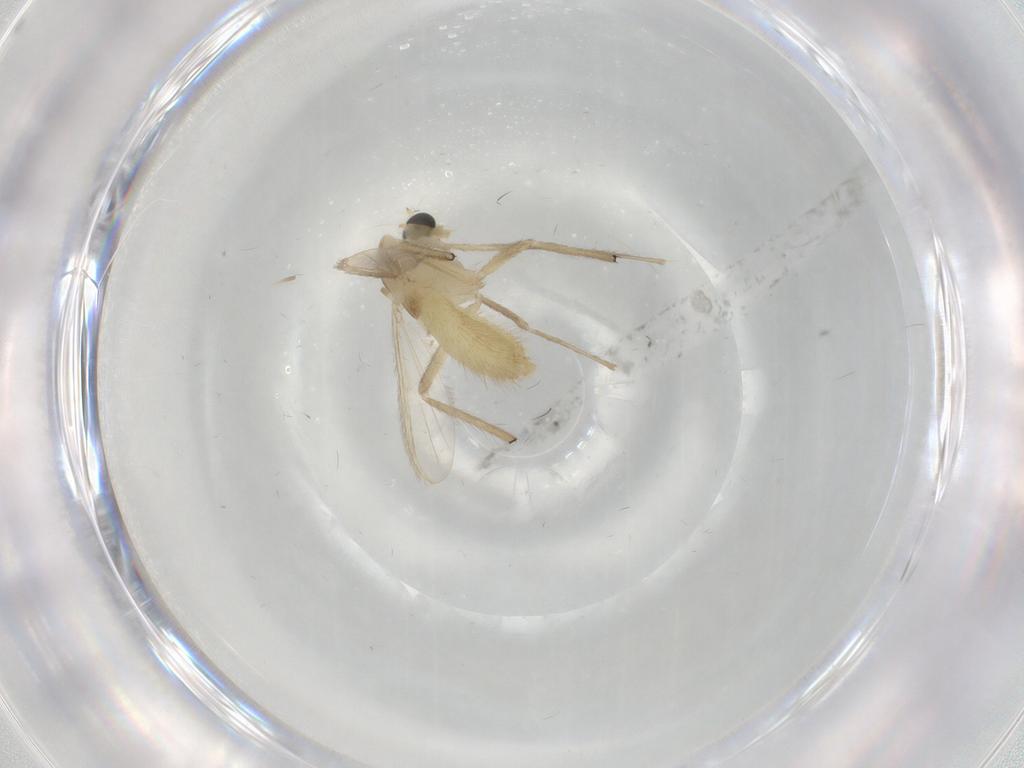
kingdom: Animalia
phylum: Arthropoda
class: Insecta
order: Diptera
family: Chironomidae
